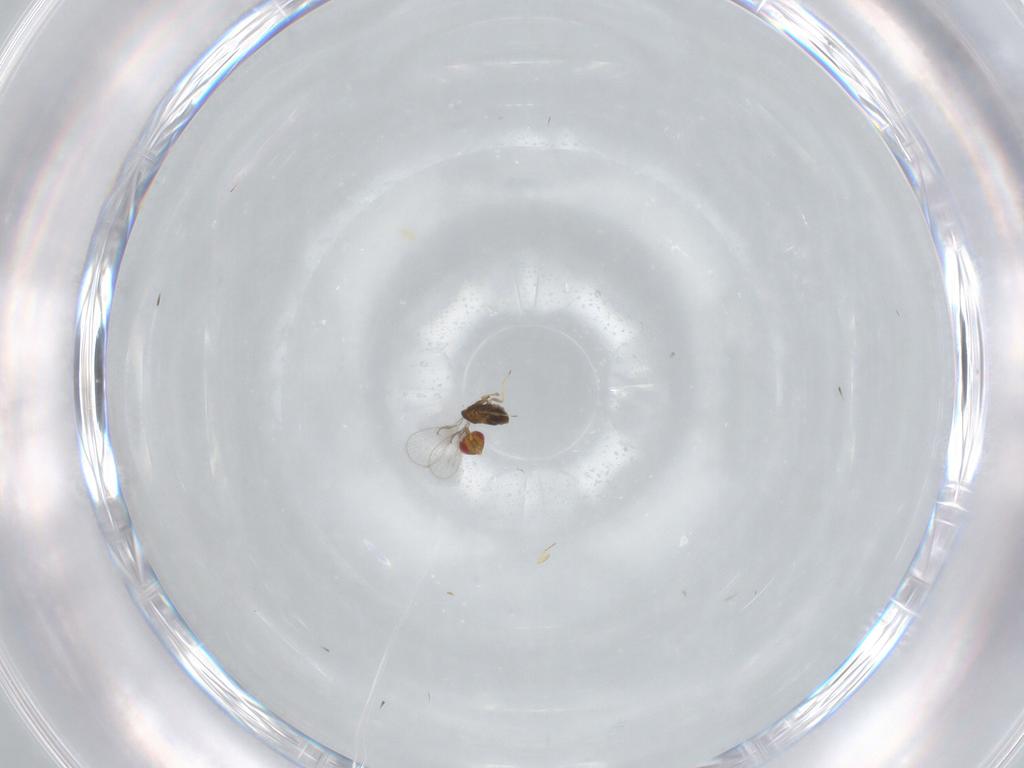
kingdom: Animalia
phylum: Arthropoda
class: Insecta
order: Hymenoptera
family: Trichogrammatidae
